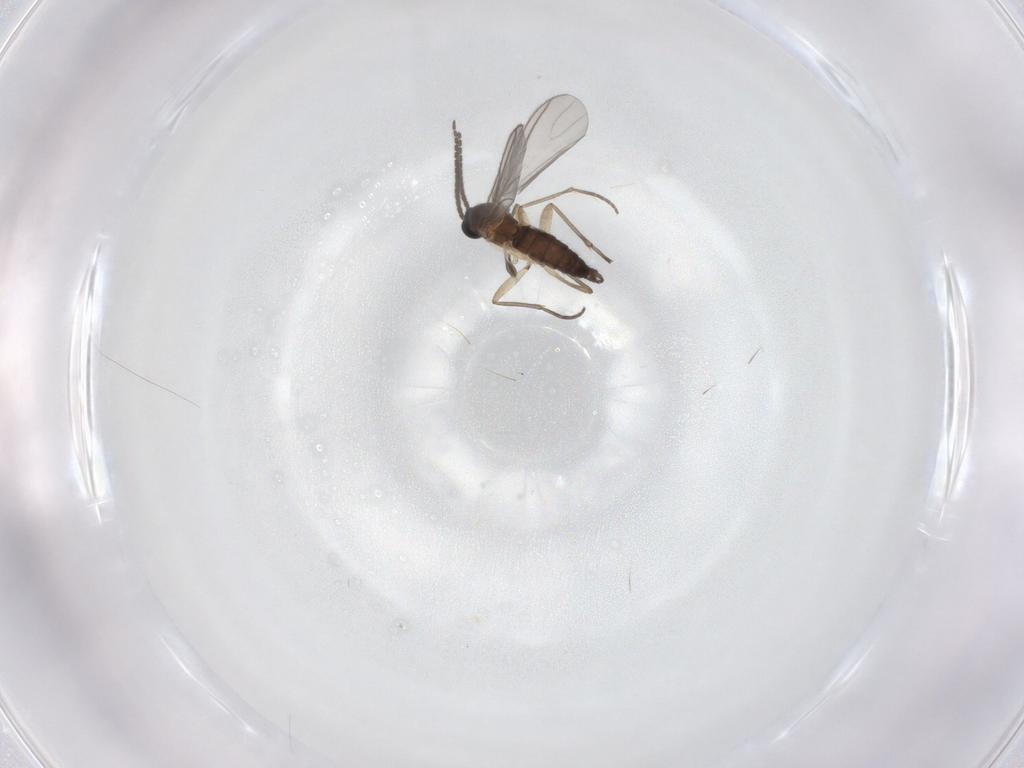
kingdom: Animalia
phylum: Arthropoda
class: Insecta
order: Diptera
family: Sciaridae
